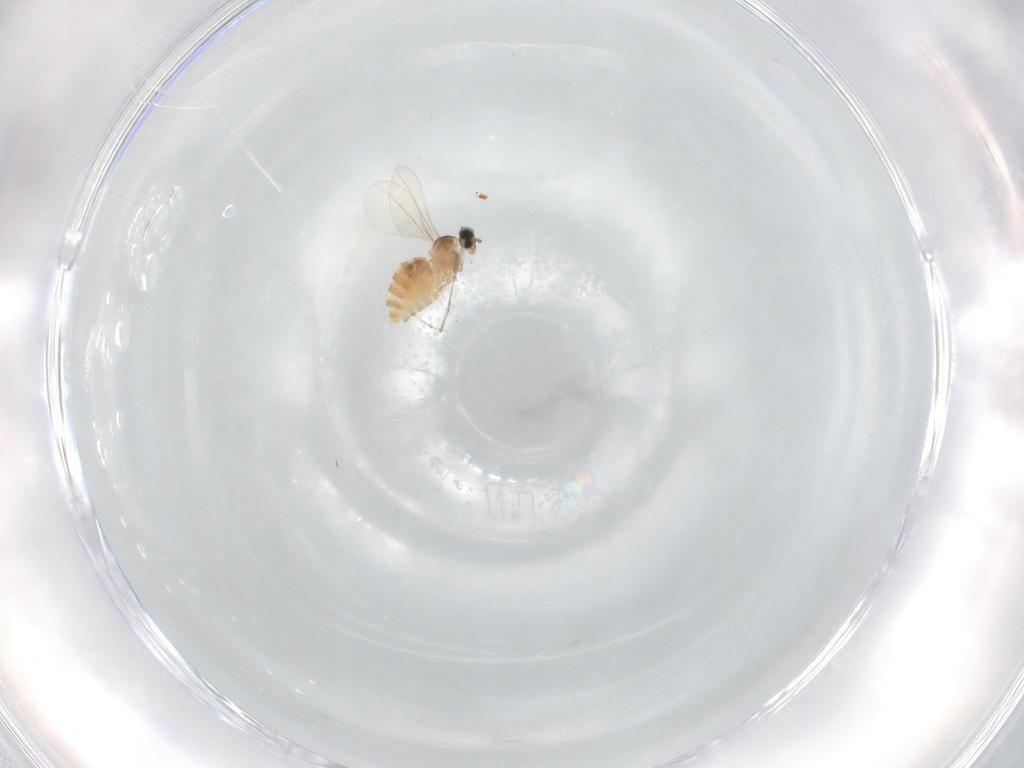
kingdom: Animalia
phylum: Arthropoda
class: Insecta
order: Diptera
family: Cecidomyiidae
